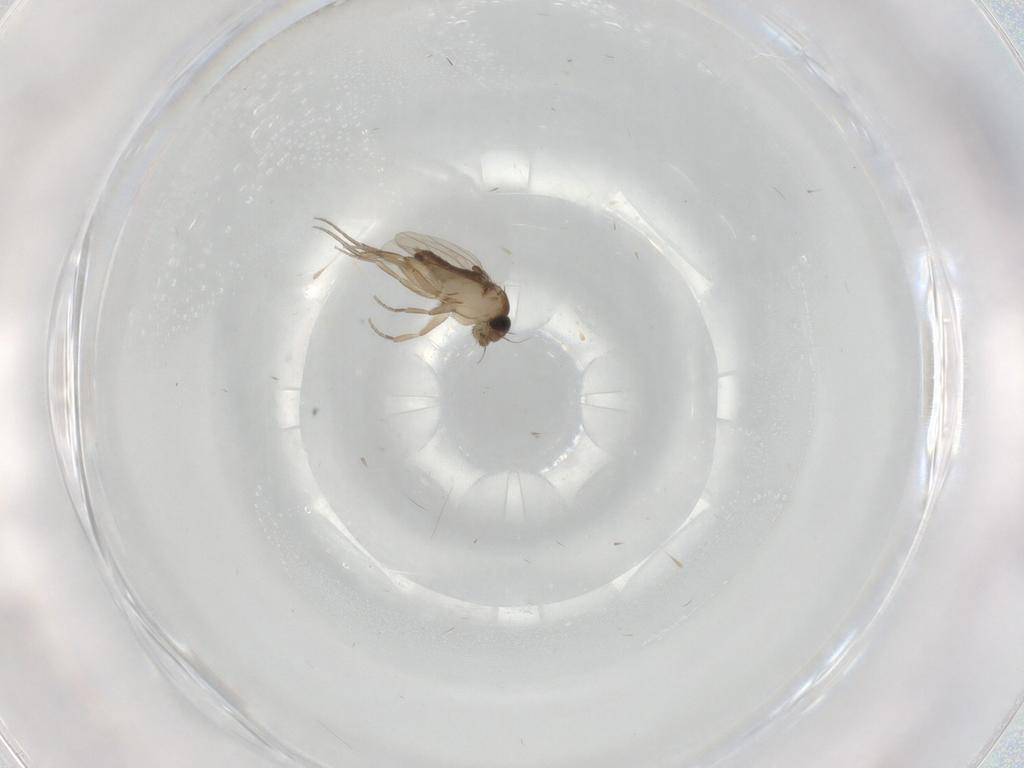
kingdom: Animalia
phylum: Arthropoda
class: Insecta
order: Diptera
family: Phoridae
